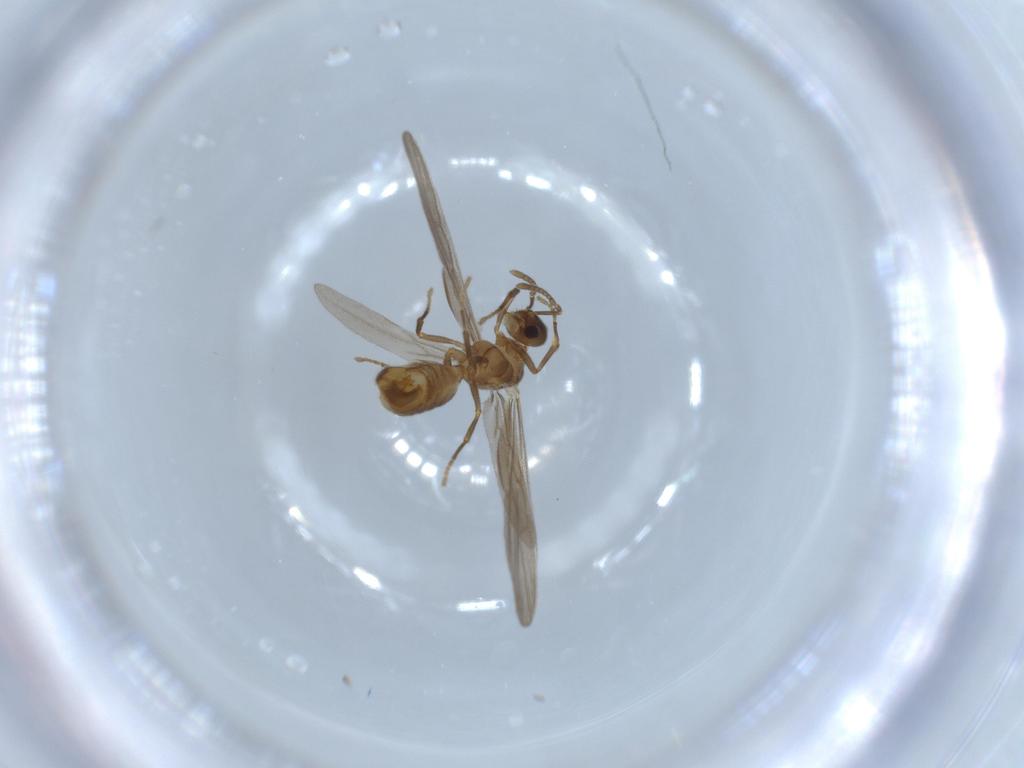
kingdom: Animalia
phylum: Arthropoda
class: Insecta
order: Hymenoptera
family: Formicidae
